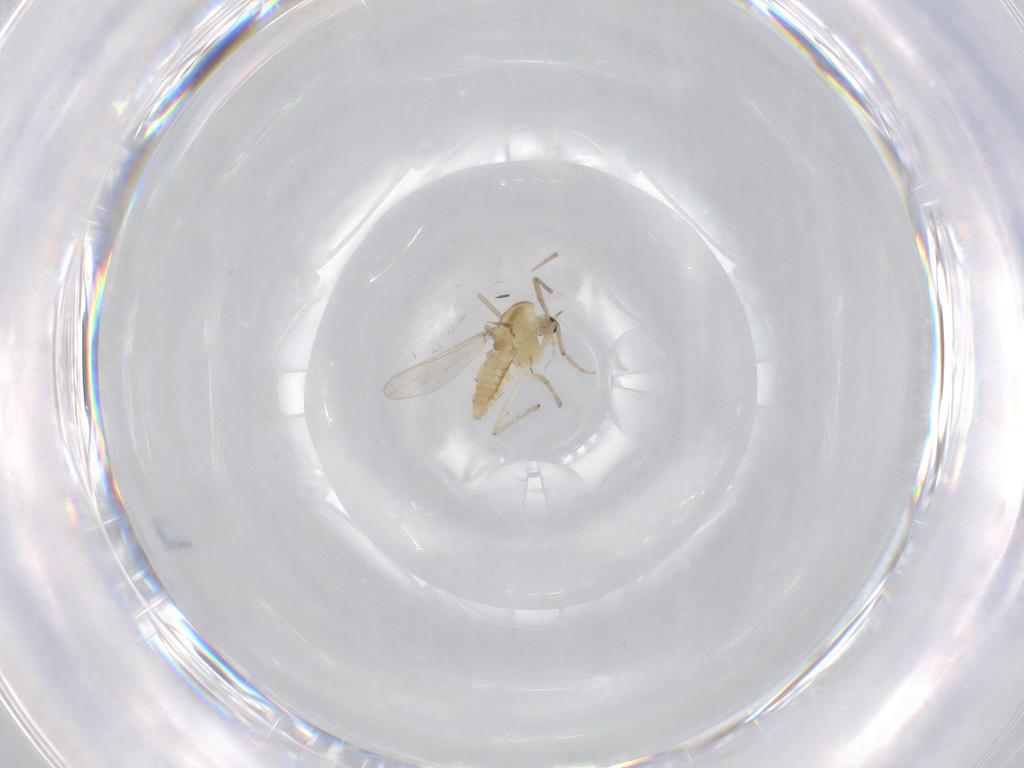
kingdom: Animalia
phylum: Arthropoda
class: Insecta
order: Diptera
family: Chironomidae
